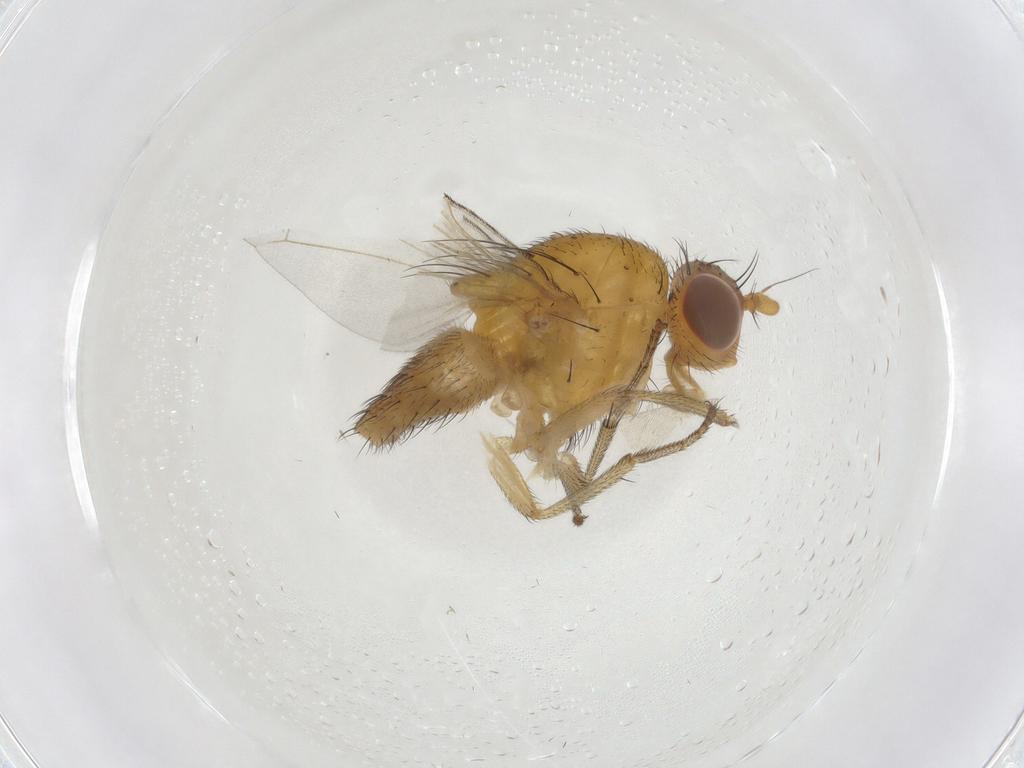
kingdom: Animalia
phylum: Arthropoda
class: Insecta
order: Diptera
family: Lauxaniidae
